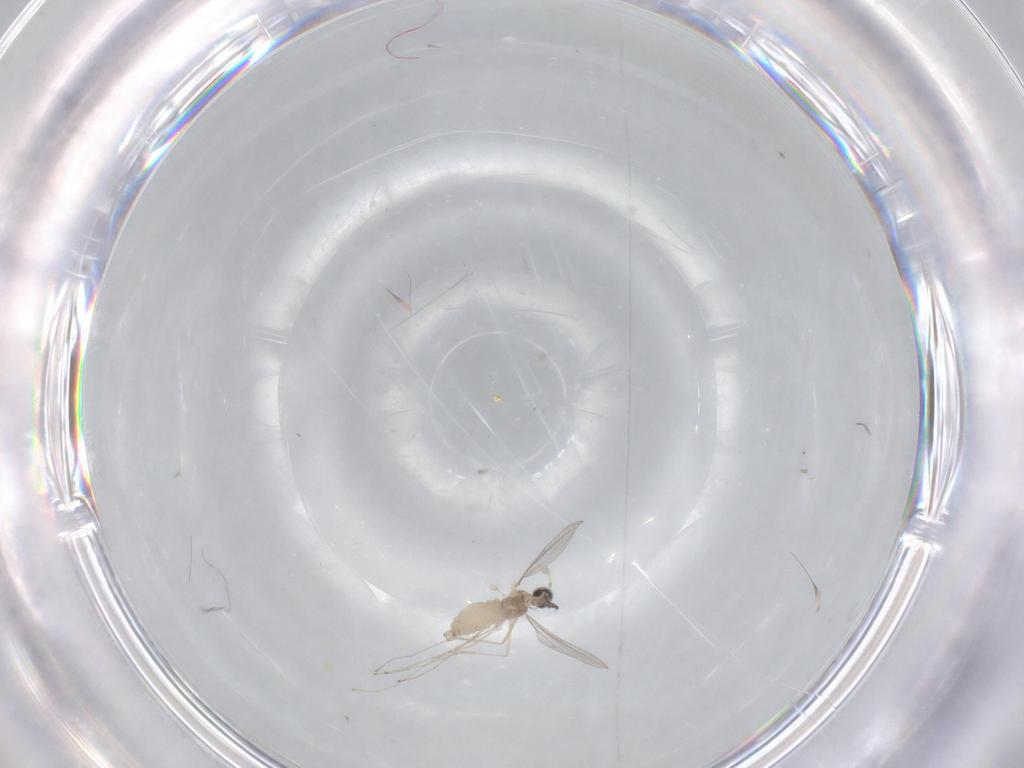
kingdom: Animalia
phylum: Arthropoda
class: Insecta
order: Diptera
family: Cecidomyiidae
